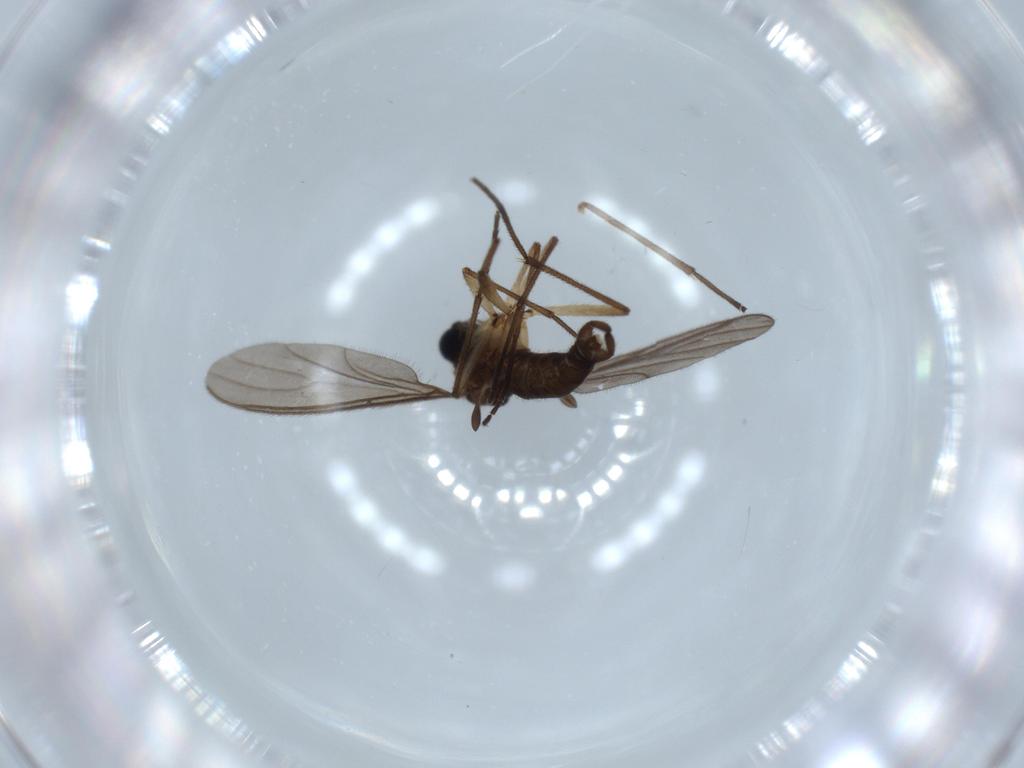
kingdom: Animalia
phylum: Arthropoda
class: Insecta
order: Diptera
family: Sciaridae
